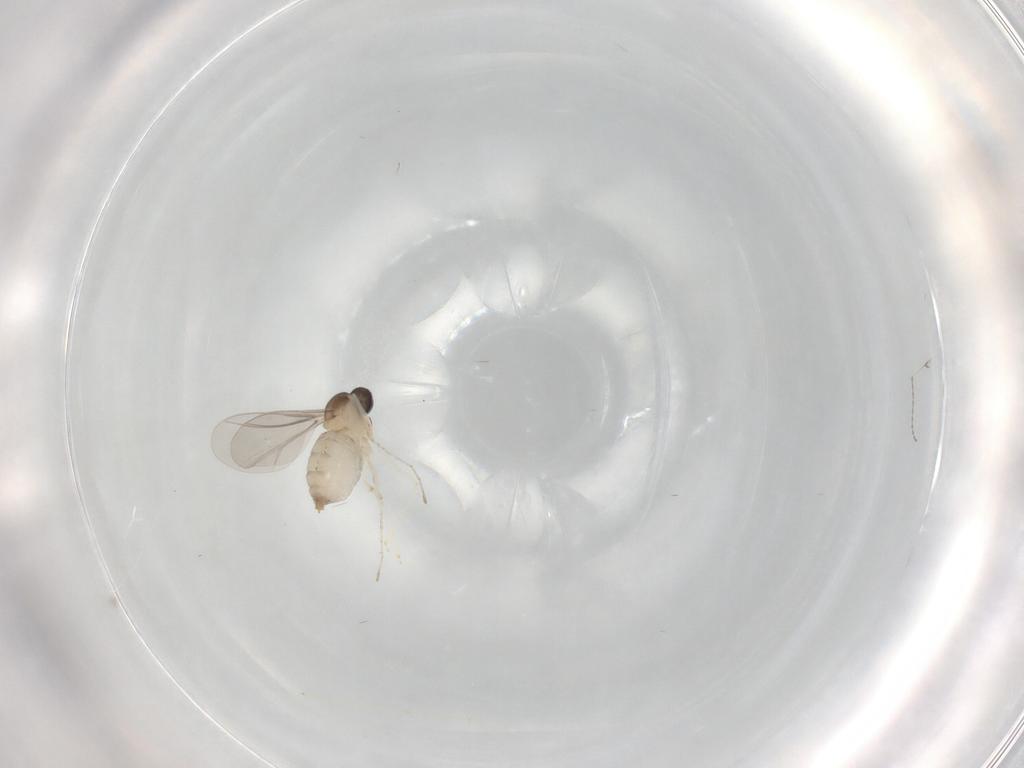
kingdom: Animalia
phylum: Arthropoda
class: Insecta
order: Diptera
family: Cecidomyiidae
